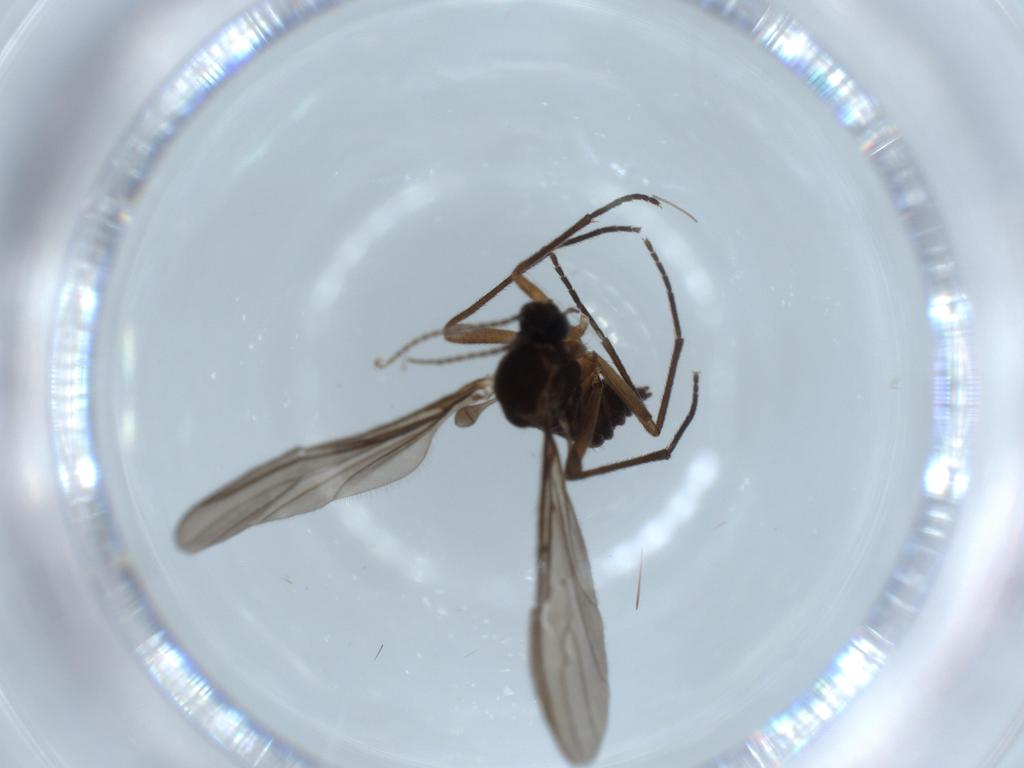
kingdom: Animalia
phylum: Arthropoda
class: Insecta
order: Diptera
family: Sciaridae
